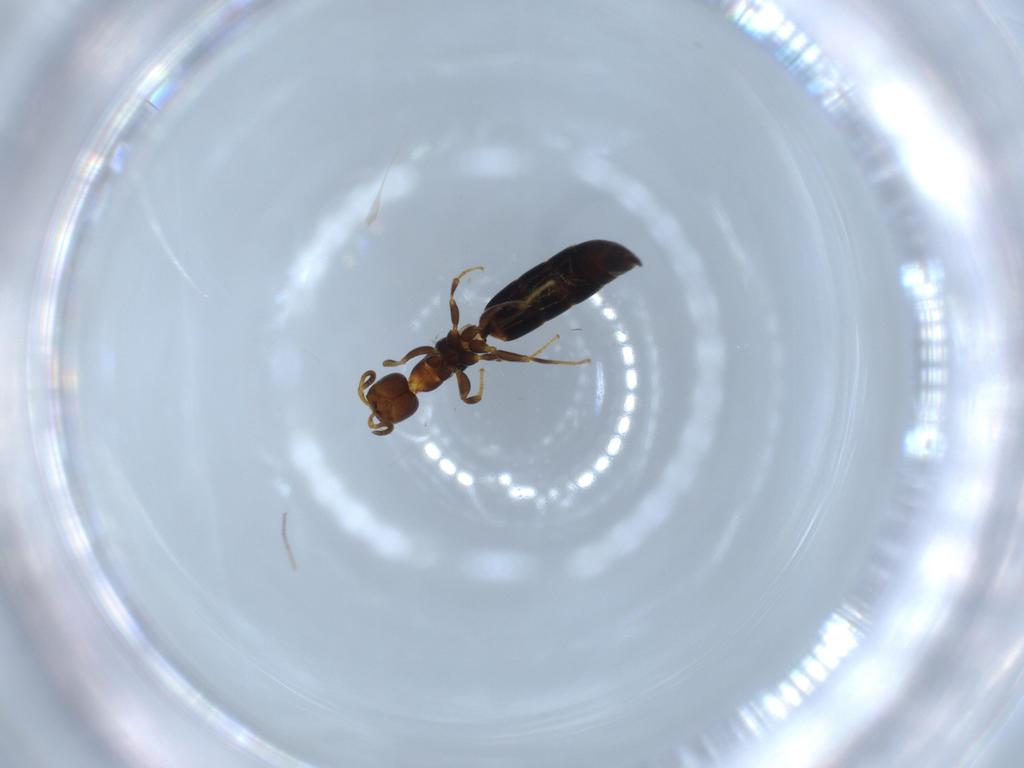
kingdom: Animalia
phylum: Arthropoda
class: Insecta
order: Hymenoptera
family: Bethylidae
